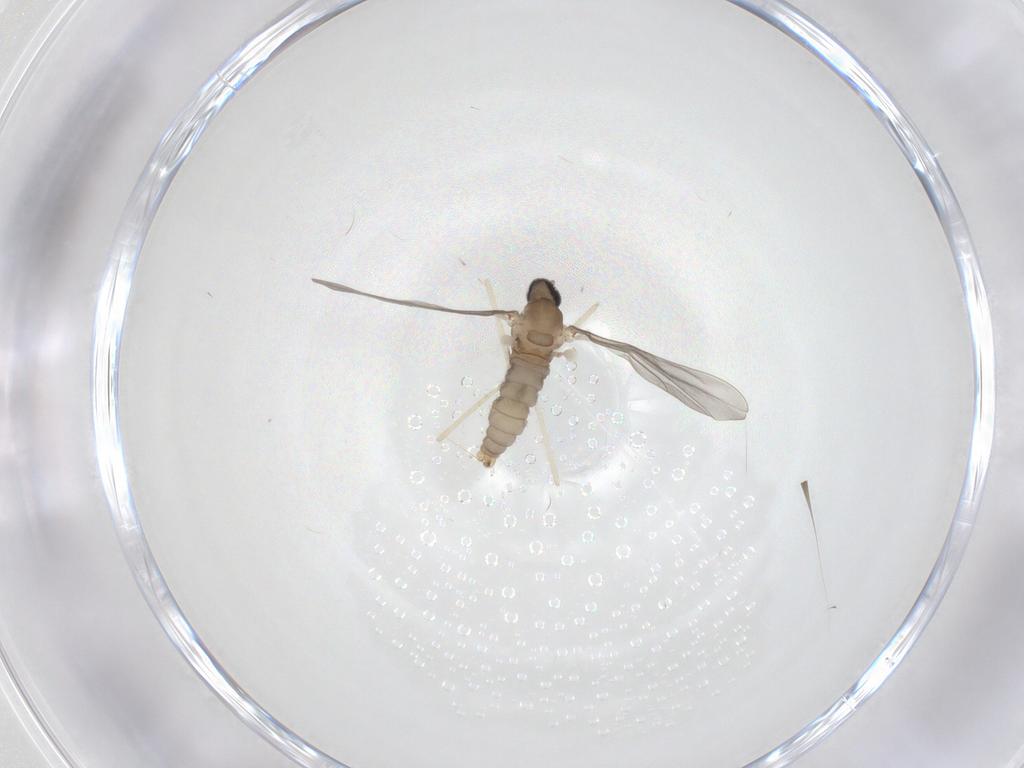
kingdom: Animalia
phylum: Arthropoda
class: Insecta
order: Diptera
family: Cecidomyiidae
